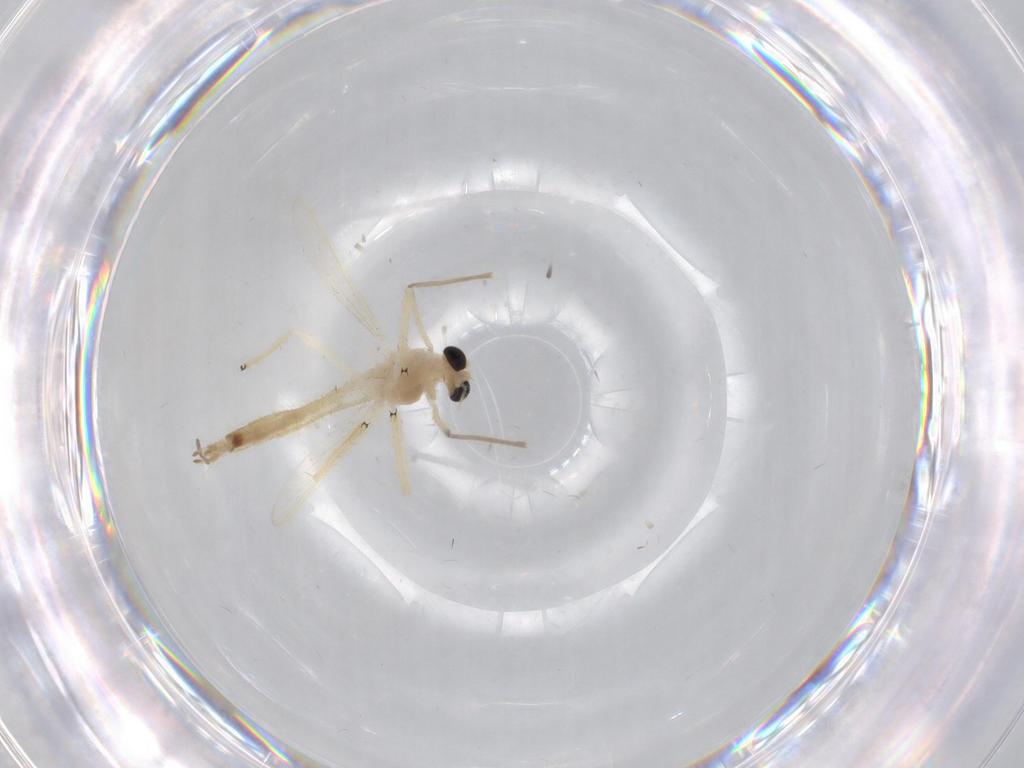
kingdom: Animalia
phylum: Arthropoda
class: Insecta
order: Diptera
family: Chironomidae
